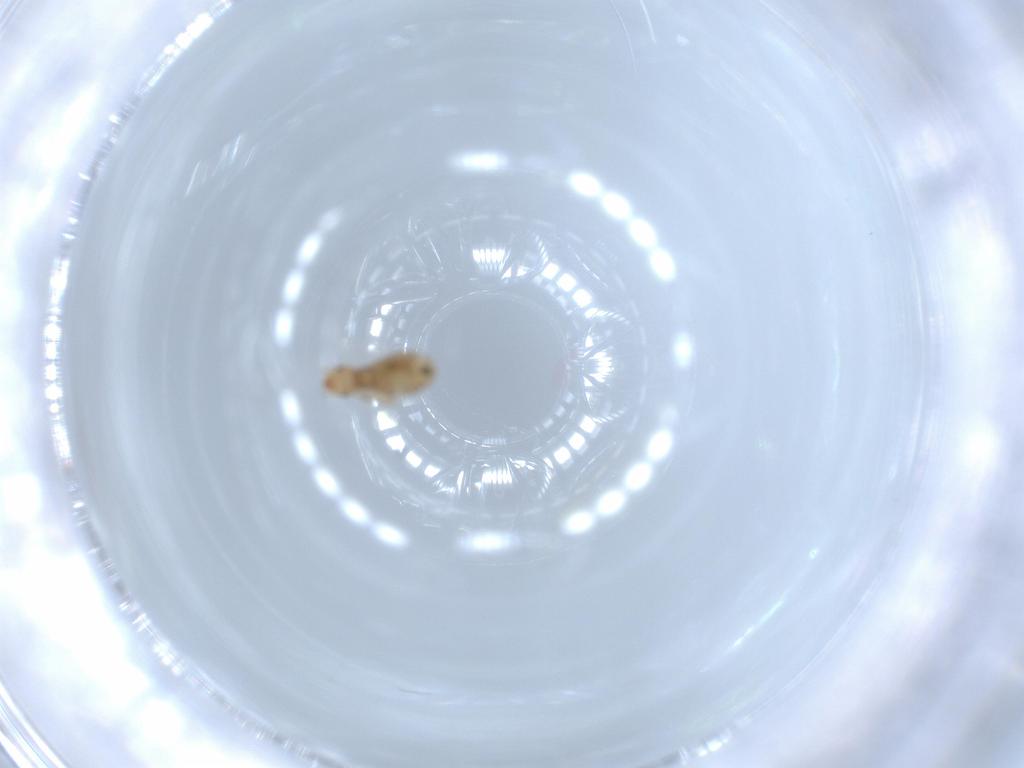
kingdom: Animalia
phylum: Arthropoda
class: Insecta
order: Psocodea
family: Liposcelididae
